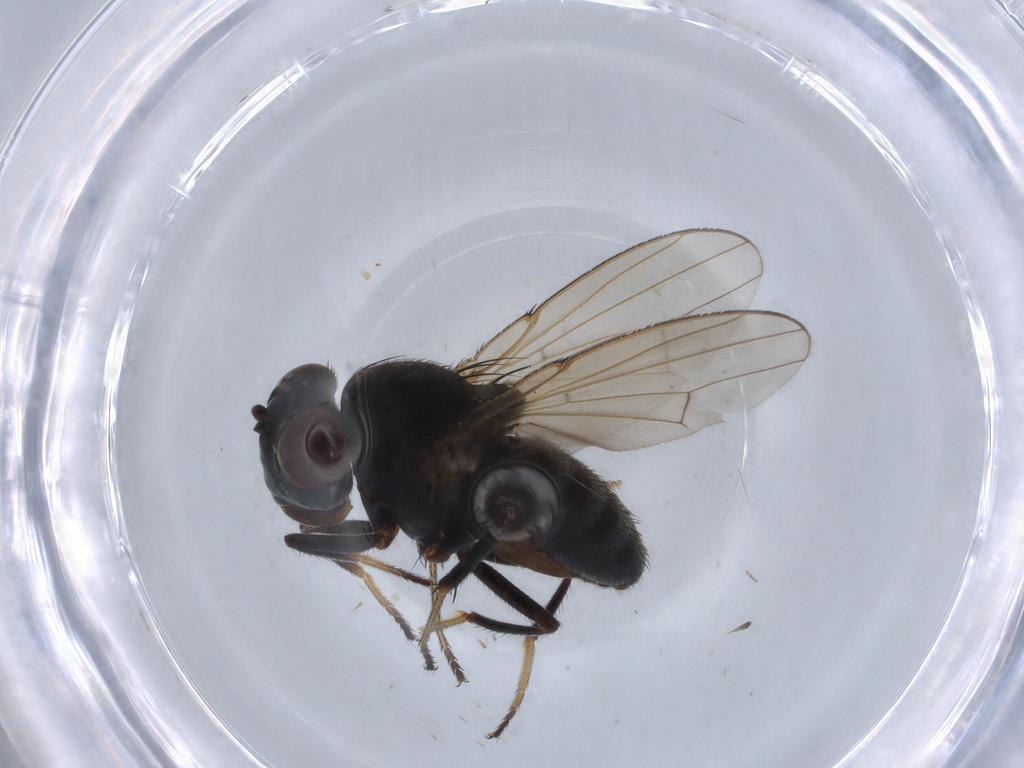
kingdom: Animalia
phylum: Arthropoda
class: Insecta
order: Diptera
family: Ephydridae
